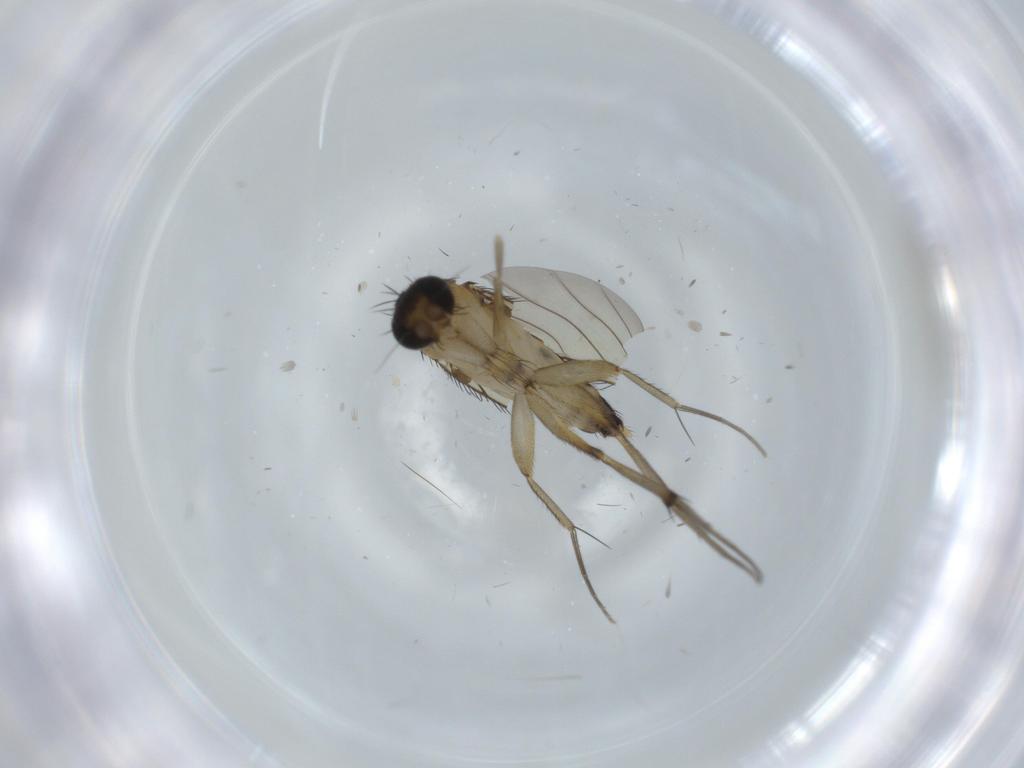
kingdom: Animalia
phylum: Arthropoda
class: Insecta
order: Diptera
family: Phoridae
